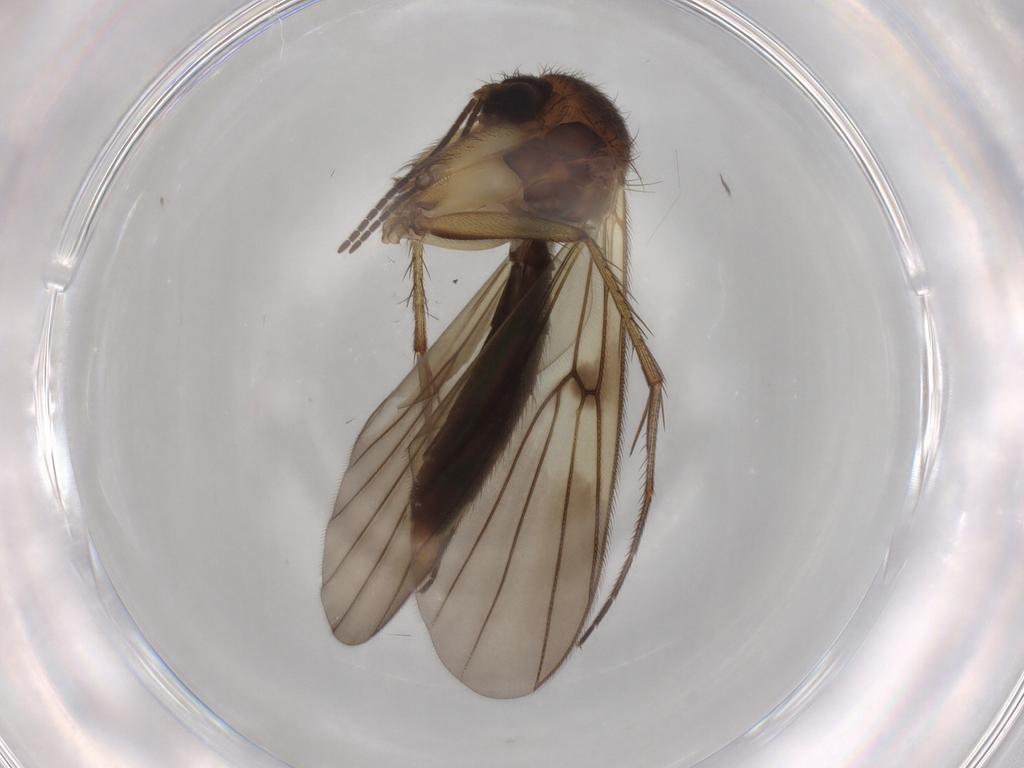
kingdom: Animalia
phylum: Arthropoda
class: Insecta
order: Diptera
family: Mycetophilidae
